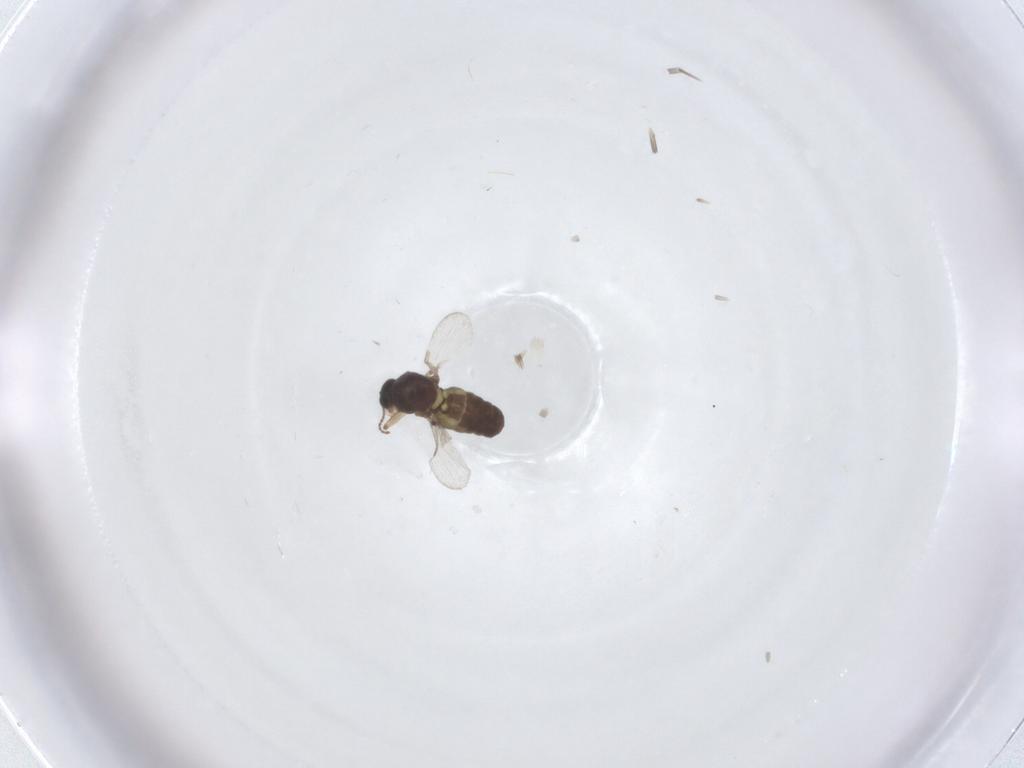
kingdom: Animalia
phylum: Arthropoda
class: Insecta
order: Diptera
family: Ceratopogonidae
